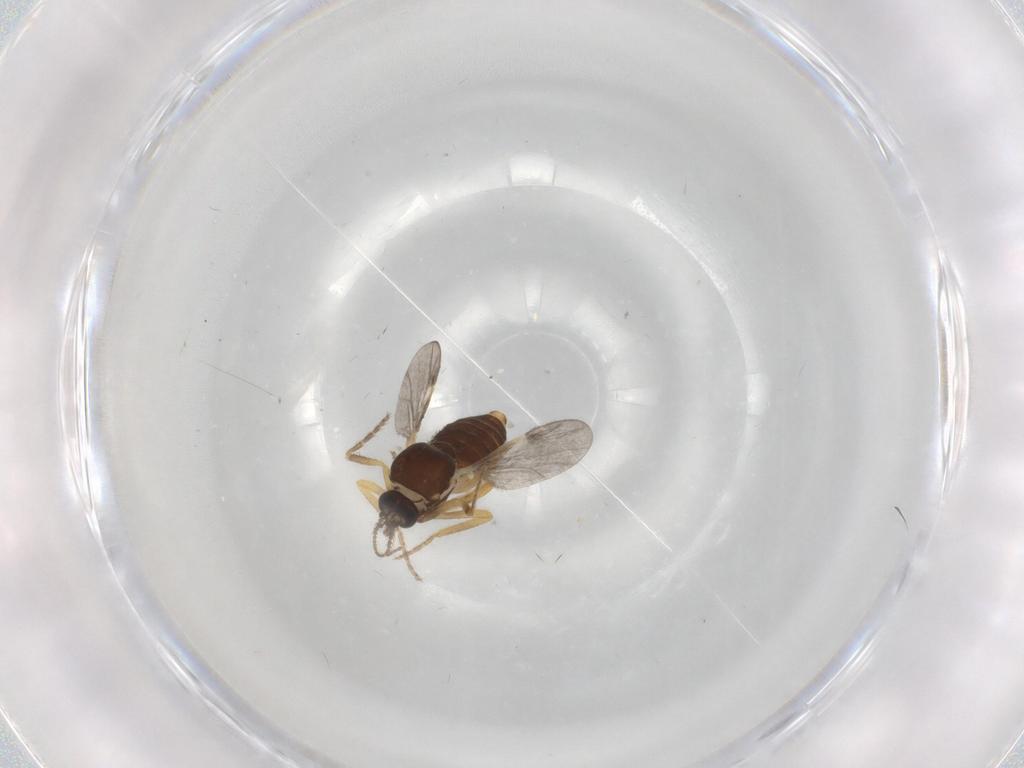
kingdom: Animalia
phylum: Arthropoda
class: Insecta
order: Diptera
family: Ceratopogonidae
